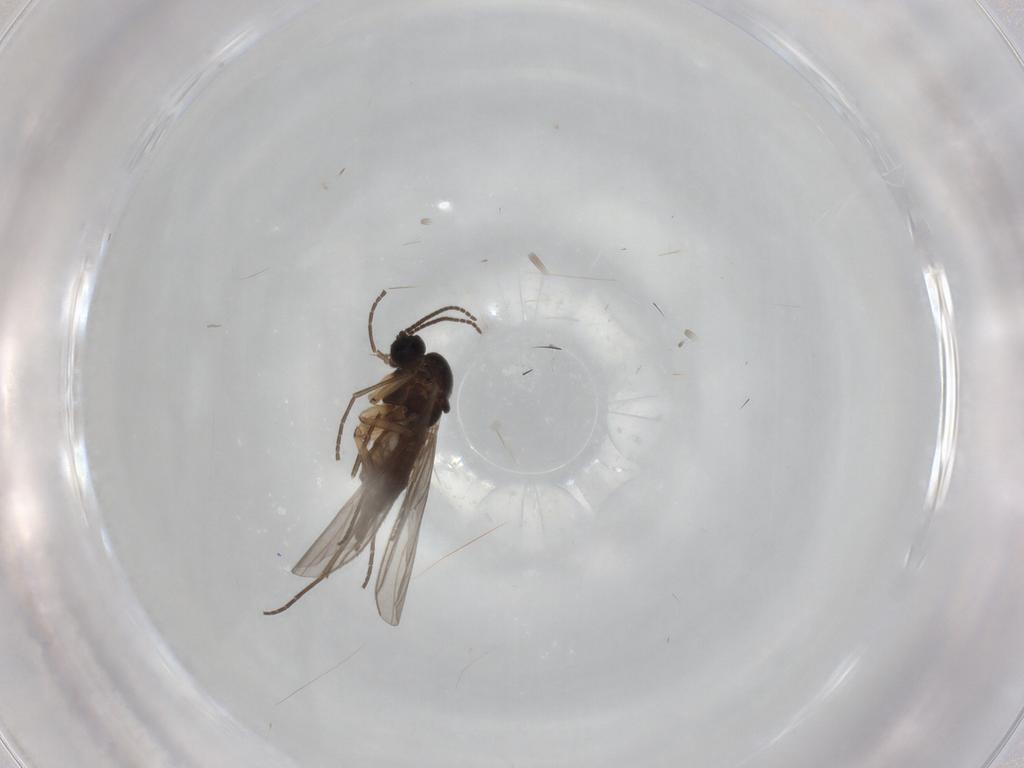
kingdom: Animalia
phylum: Arthropoda
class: Insecta
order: Diptera
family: Sciaridae
